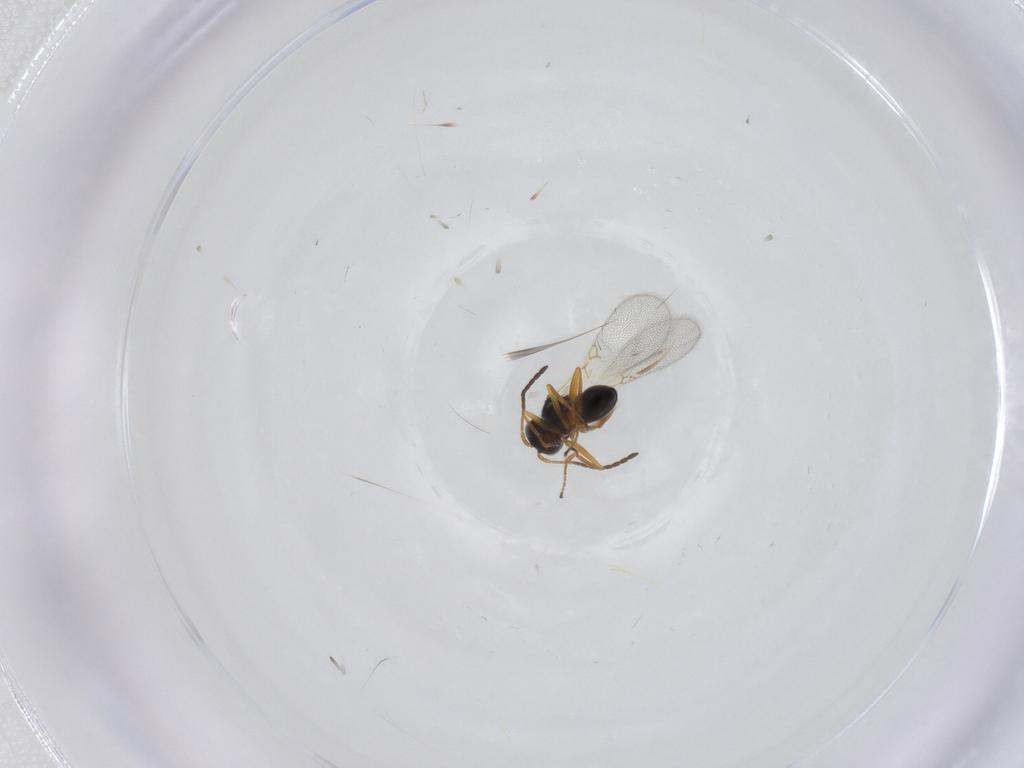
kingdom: Animalia
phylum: Arthropoda
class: Insecta
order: Hymenoptera
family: Figitidae
